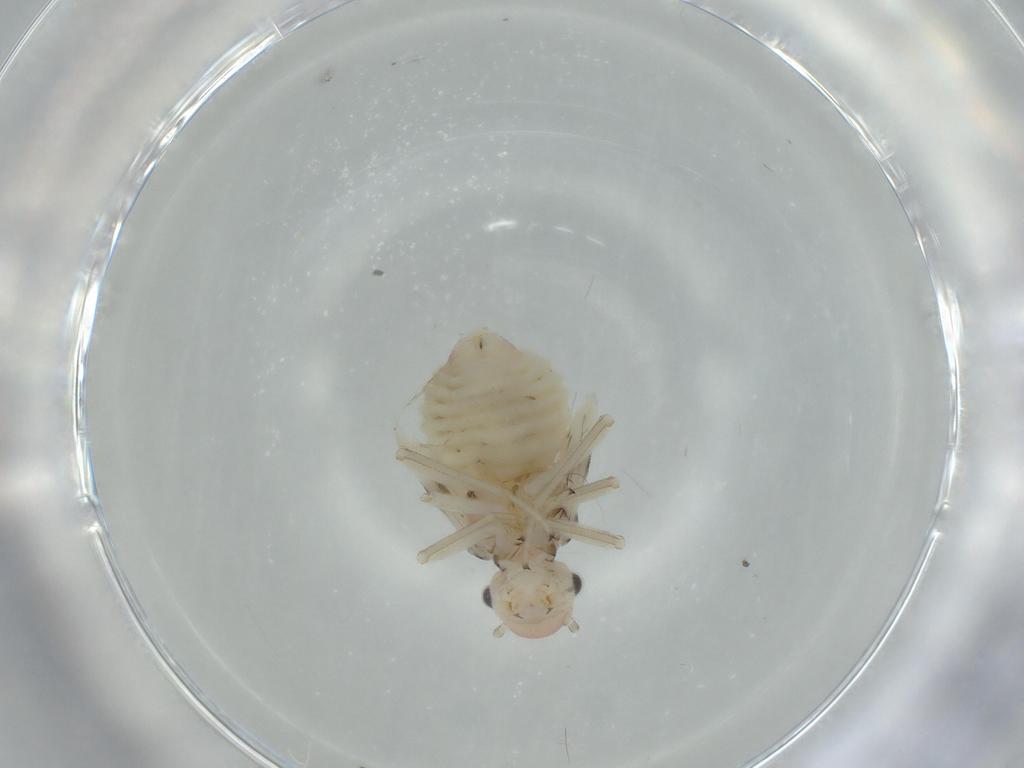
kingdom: Animalia
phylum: Arthropoda
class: Insecta
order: Psocodea
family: Amphipsocidae
